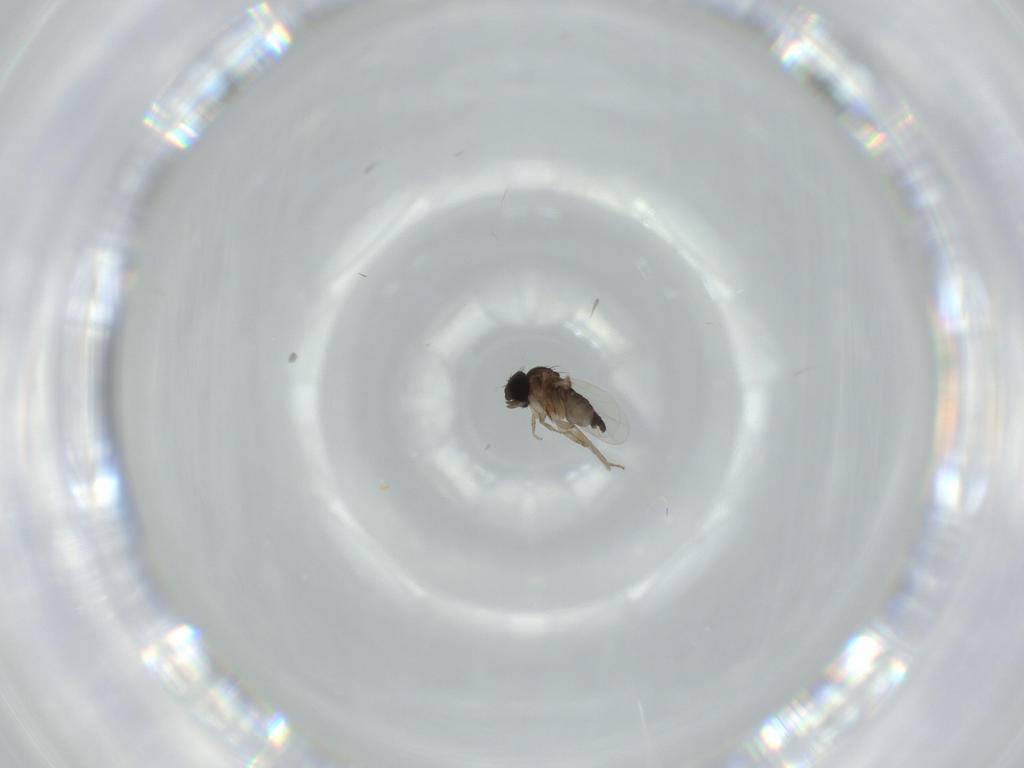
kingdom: Animalia
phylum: Arthropoda
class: Insecta
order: Diptera
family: Phoridae
